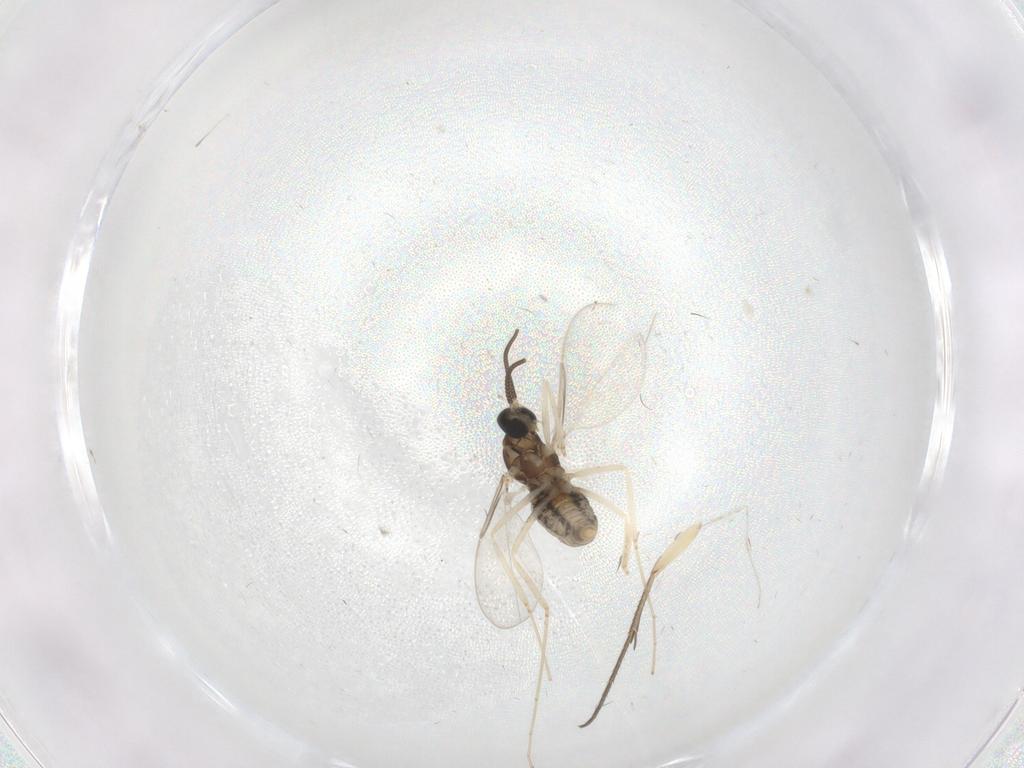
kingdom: Animalia
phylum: Arthropoda
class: Insecta
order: Diptera
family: Cecidomyiidae
